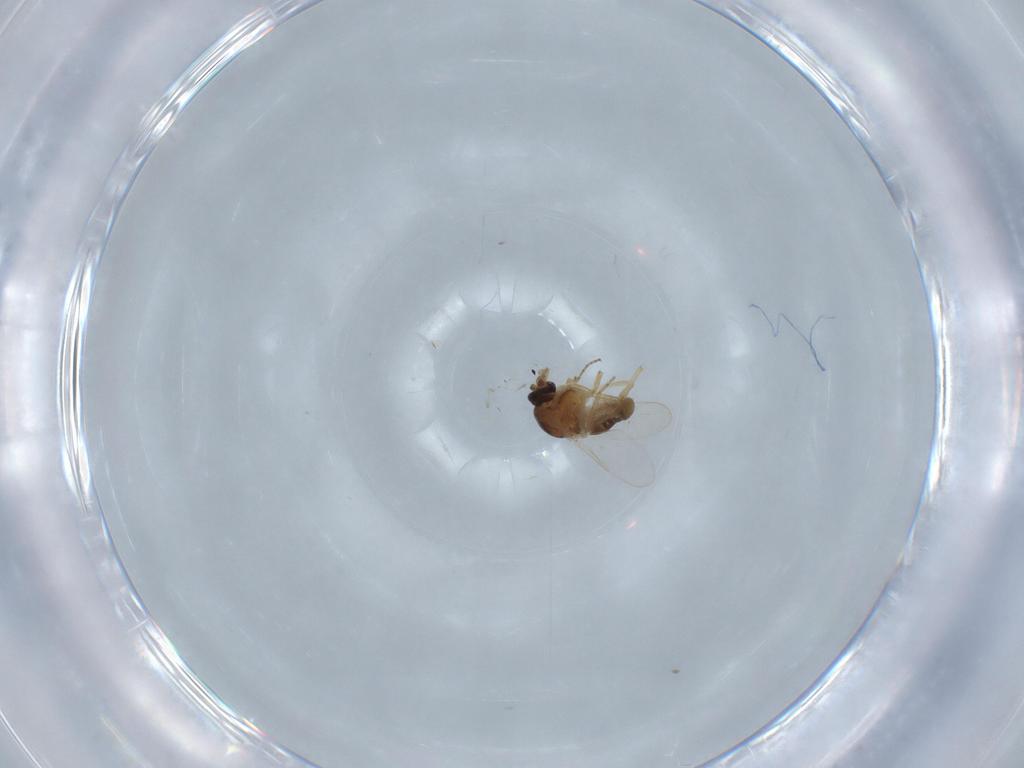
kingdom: Animalia
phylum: Arthropoda
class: Insecta
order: Diptera
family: Ceratopogonidae
